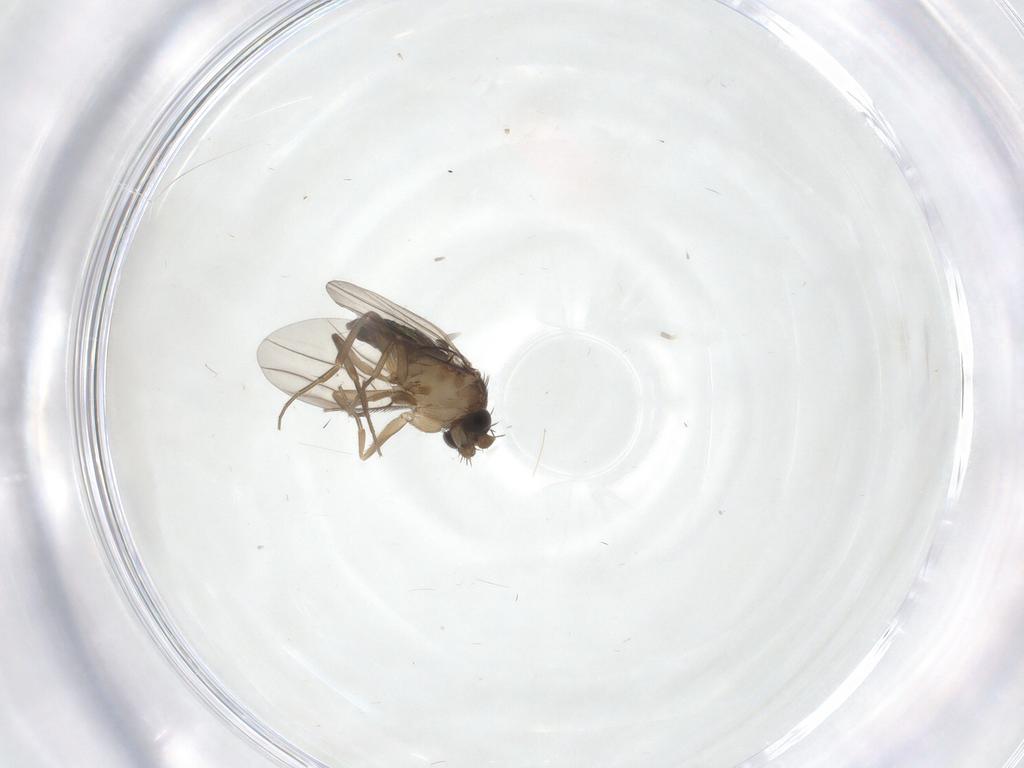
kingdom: Animalia
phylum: Arthropoda
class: Insecta
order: Diptera
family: Phoridae
